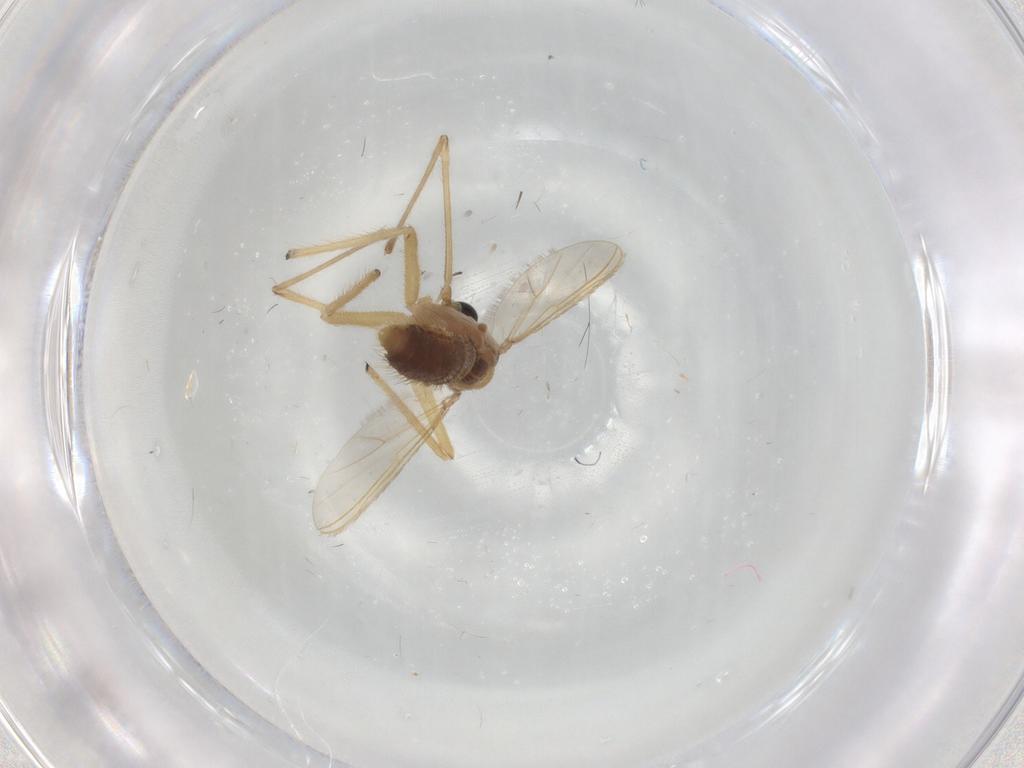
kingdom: Animalia
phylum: Arthropoda
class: Insecta
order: Diptera
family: Chironomidae
